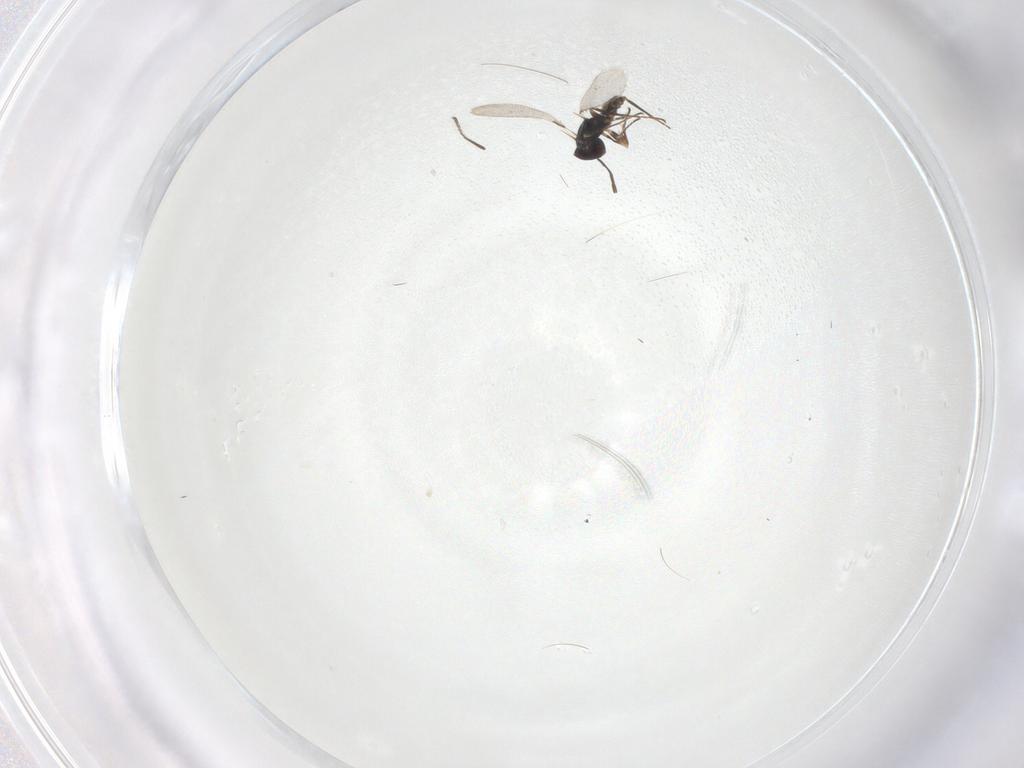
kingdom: Animalia
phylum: Arthropoda
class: Insecta
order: Hymenoptera
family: Mymaridae
